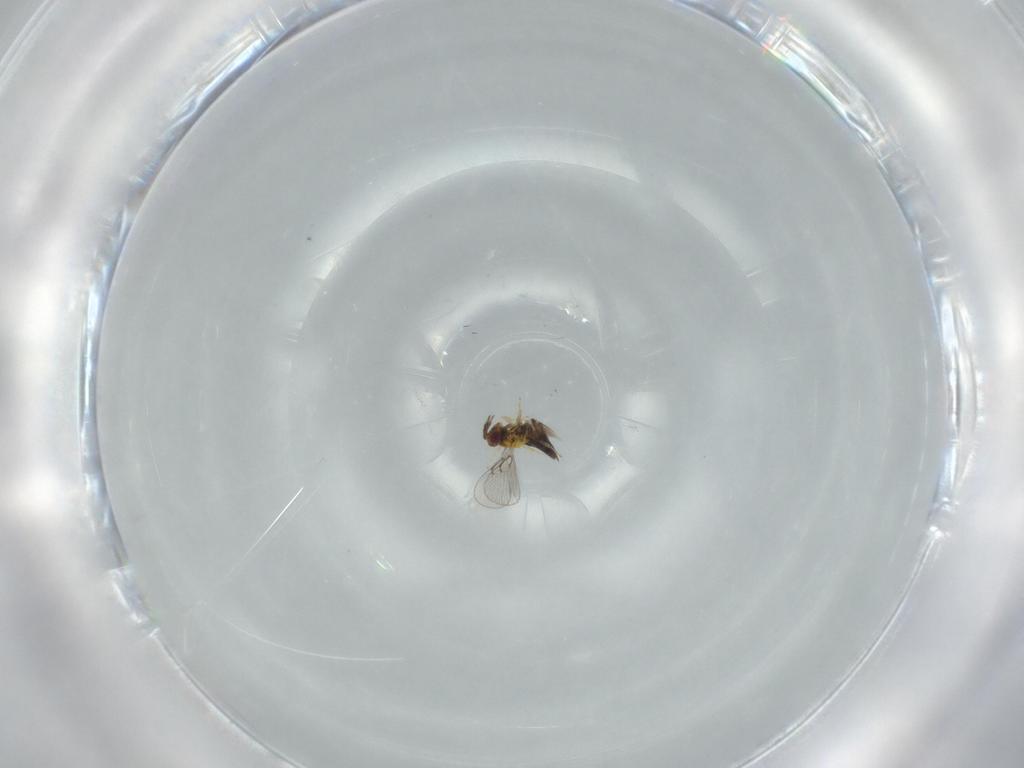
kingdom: Animalia
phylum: Arthropoda
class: Insecta
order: Hymenoptera
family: Trichogrammatidae
